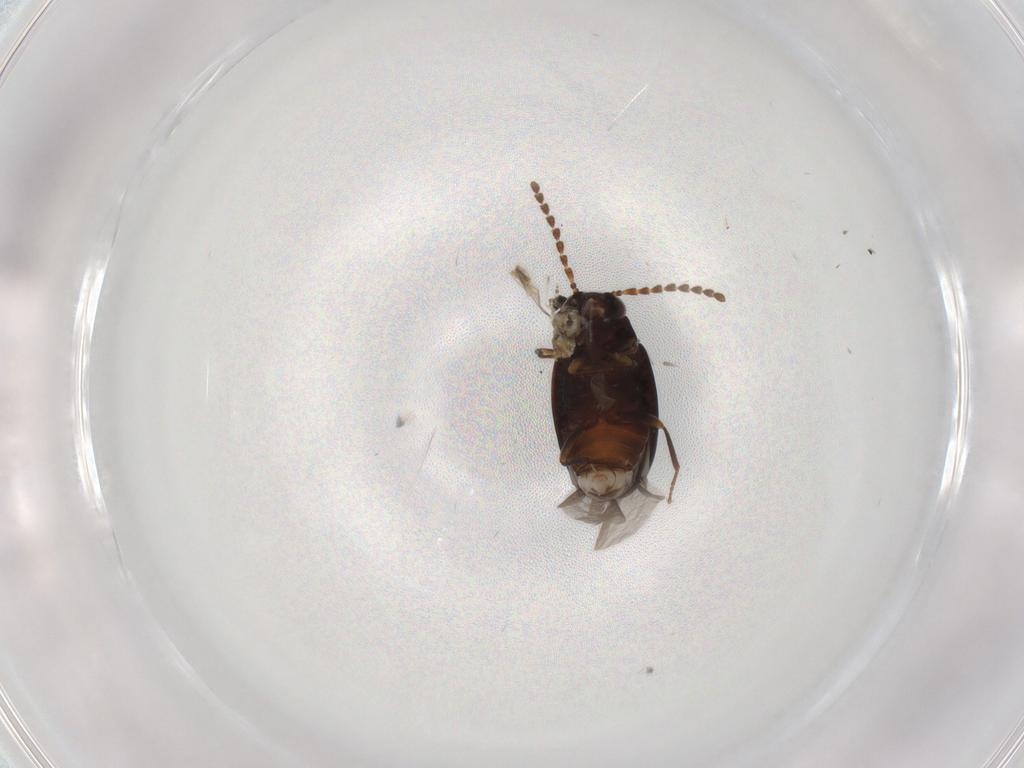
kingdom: Animalia
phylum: Arthropoda
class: Insecta
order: Coleoptera
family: Tenebrionidae
